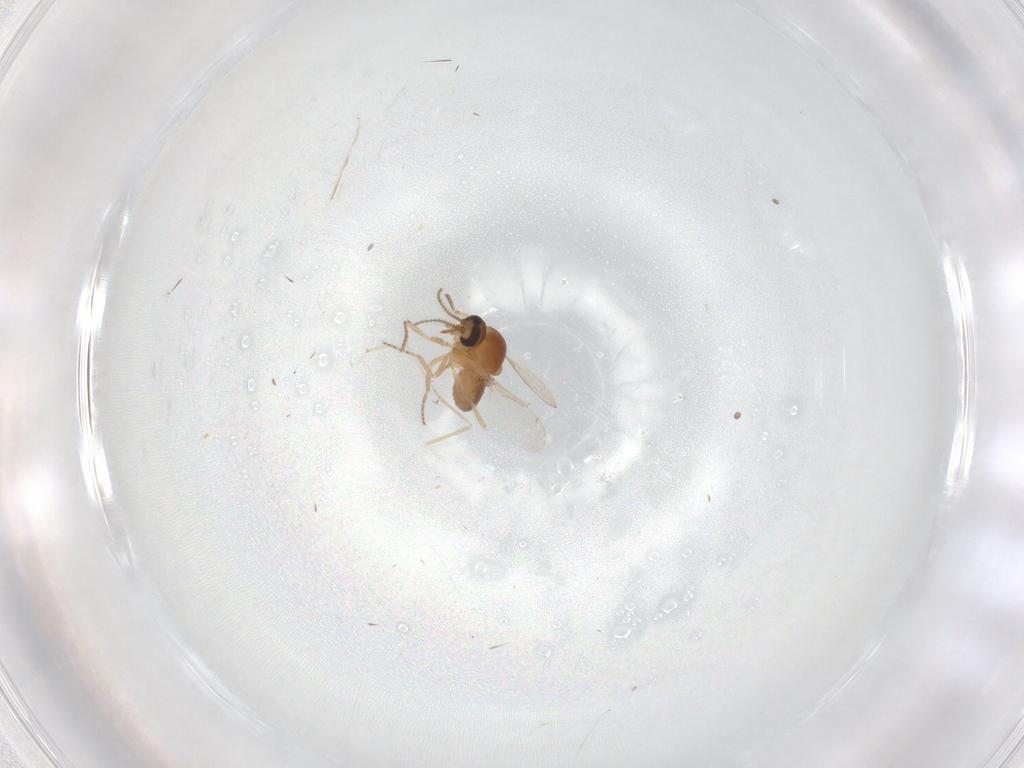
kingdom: Animalia
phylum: Arthropoda
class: Insecta
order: Diptera
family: Ceratopogonidae
